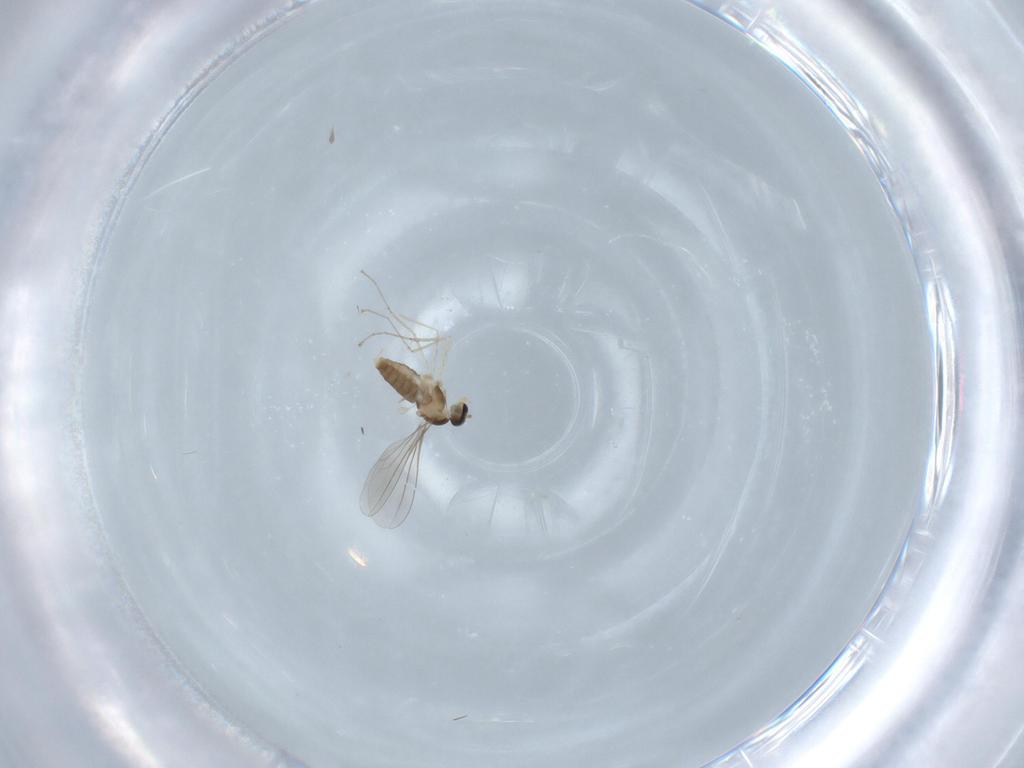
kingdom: Animalia
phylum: Arthropoda
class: Insecta
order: Diptera
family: Cecidomyiidae
